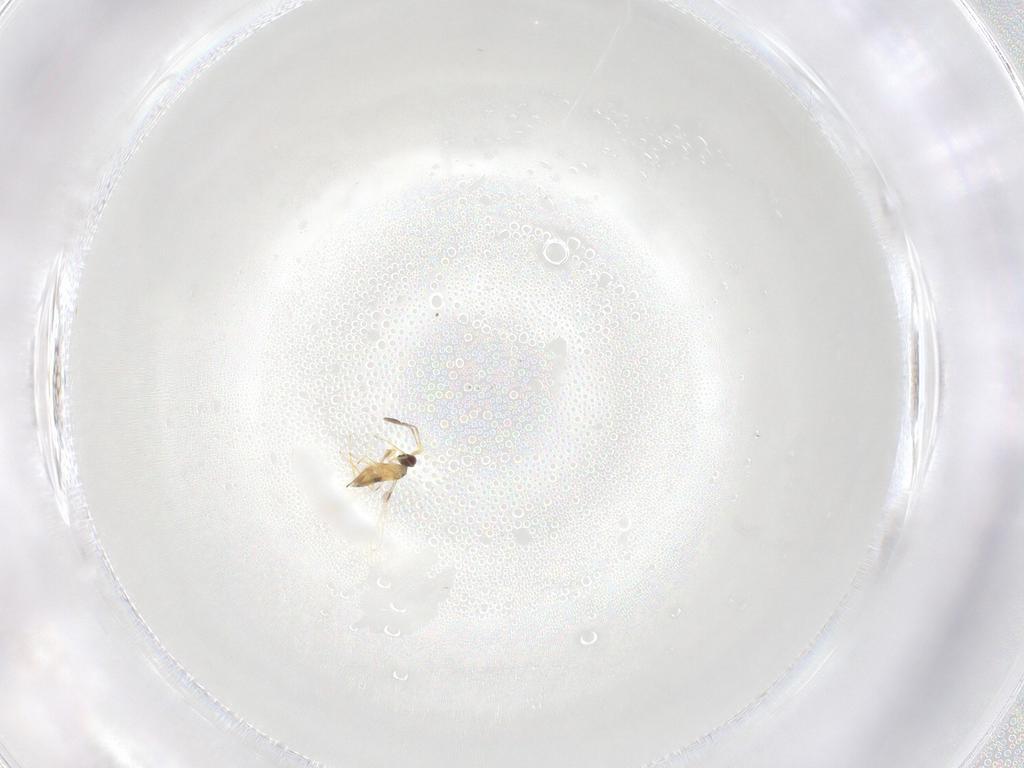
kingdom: Animalia
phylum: Arthropoda
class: Insecta
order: Hymenoptera
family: Mymaridae
